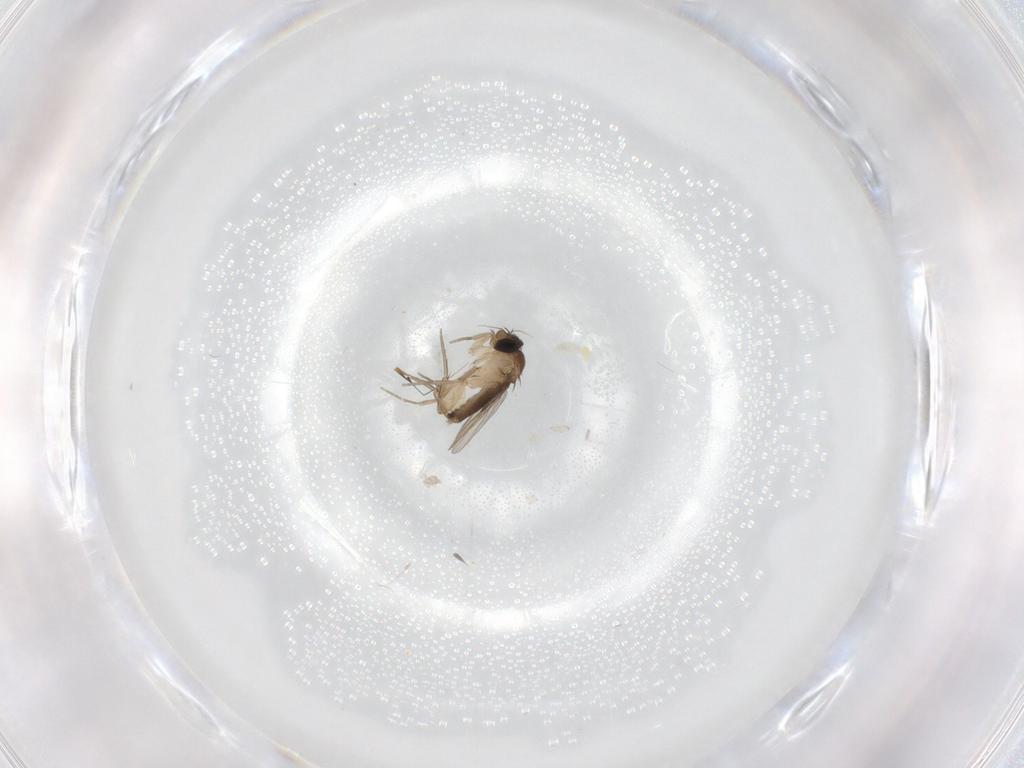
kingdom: Animalia
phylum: Arthropoda
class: Insecta
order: Diptera
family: Phoridae
